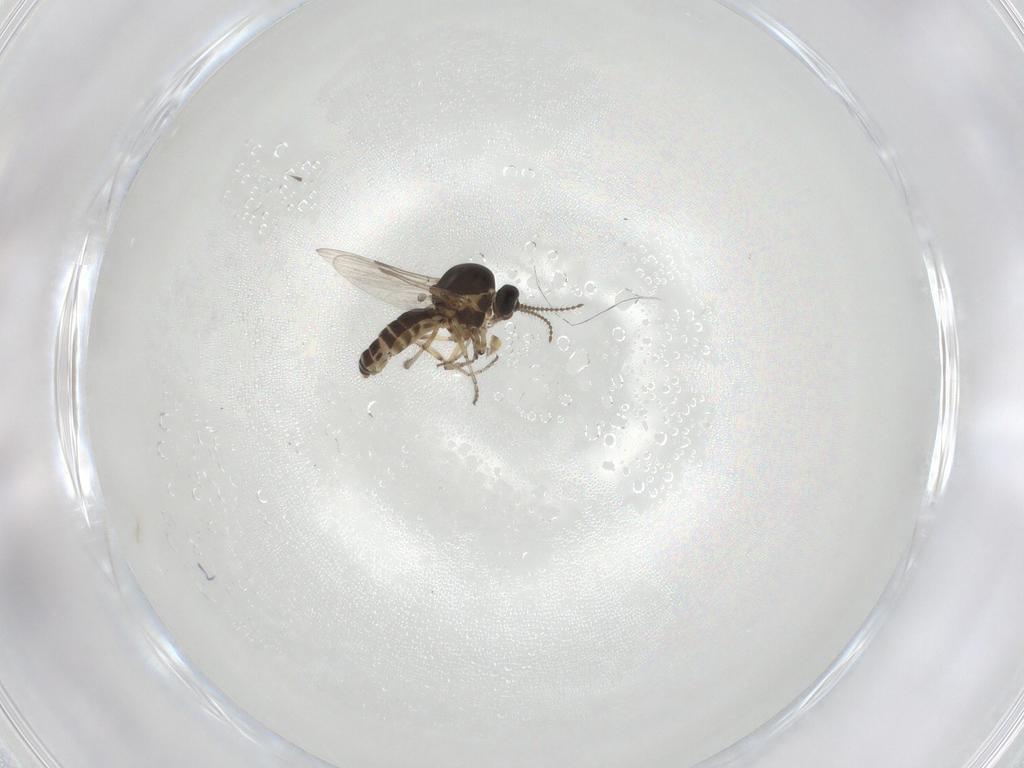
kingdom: Animalia
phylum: Arthropoda
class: Insecta
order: Diptera
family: Ceratopogonidae
